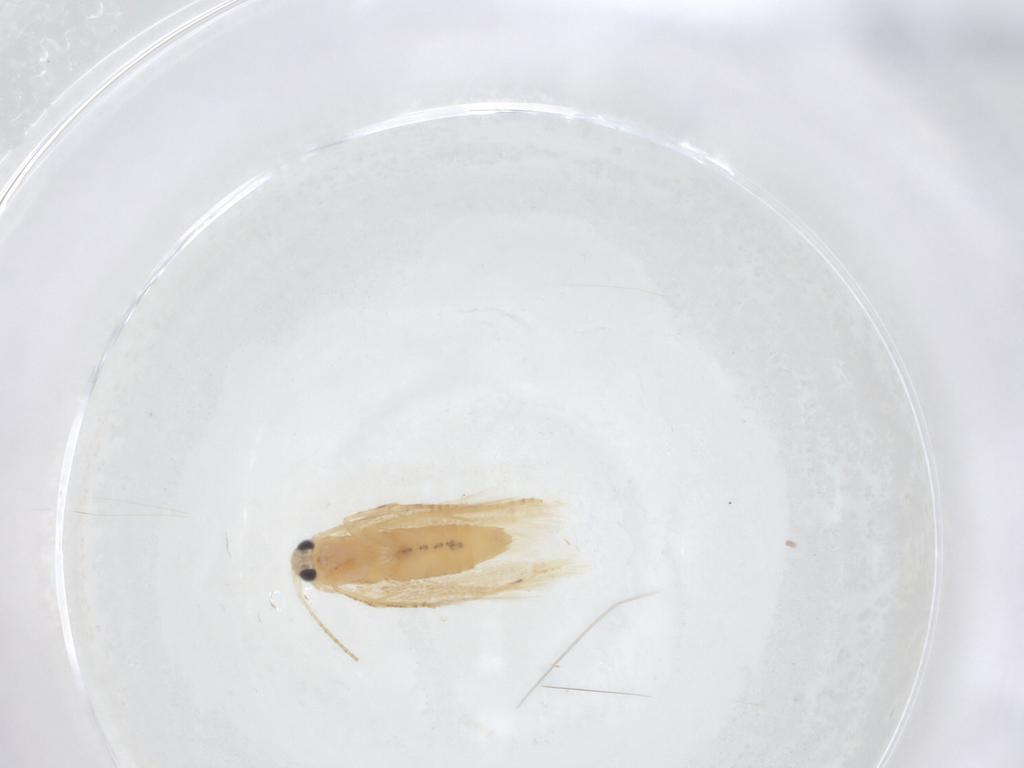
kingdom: Animalia
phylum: Arthropoda
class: Insecta
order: Lepidoptera
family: Depressariidae
